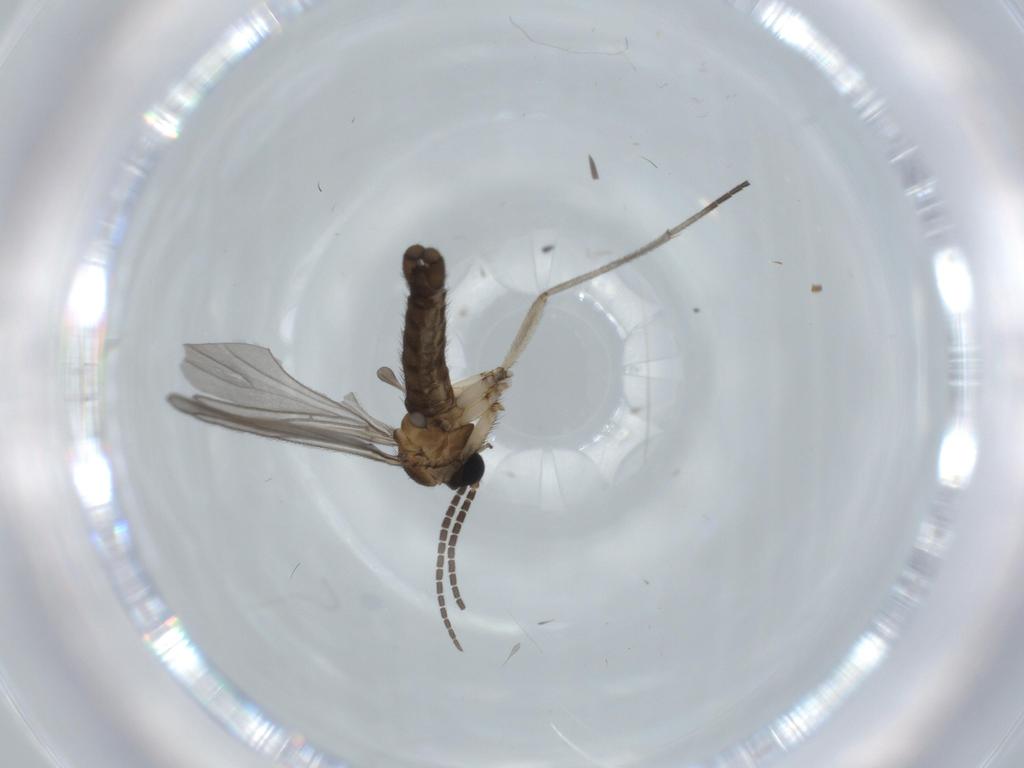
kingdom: Animalia
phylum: Arthropoda
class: Insecta
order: Diptera
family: Sciaridae
